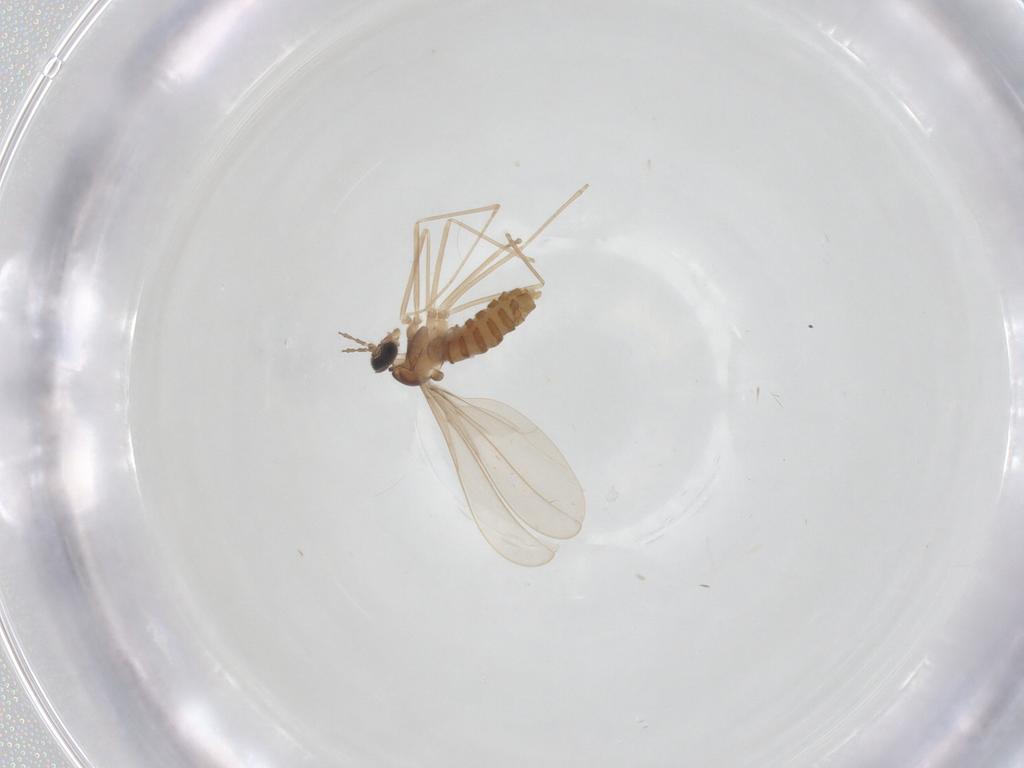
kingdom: Animalia
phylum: Arthropoda
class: Insecta
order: Diptera
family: Cecidomyiidae
